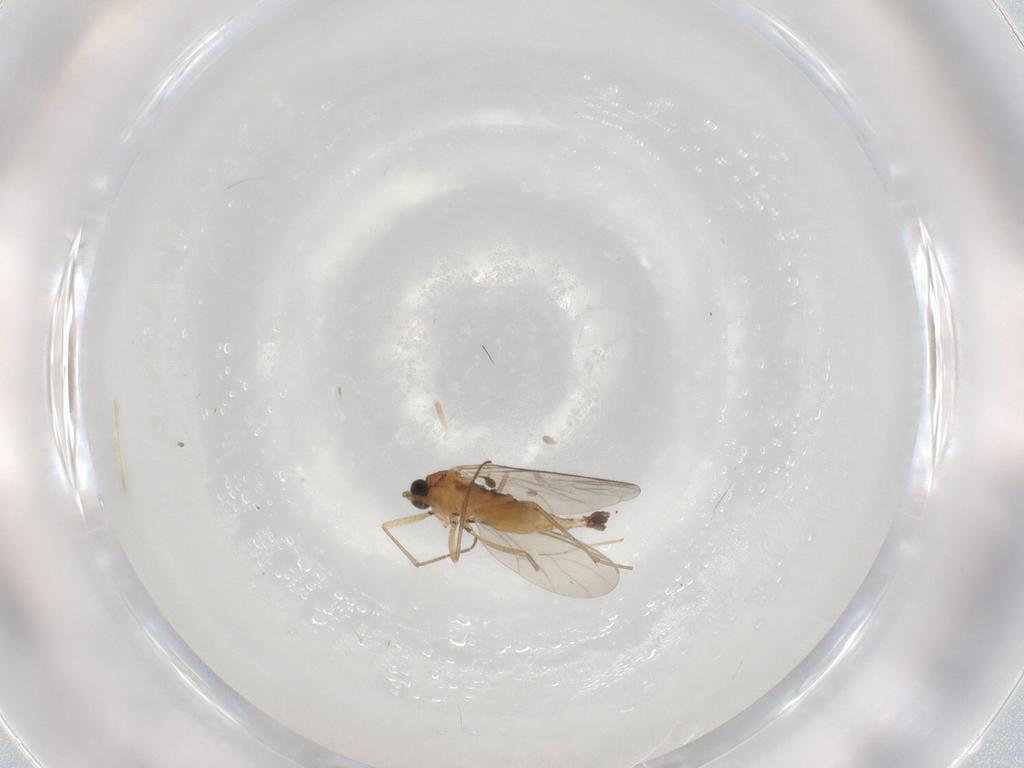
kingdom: Animalia
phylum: Arthropoda
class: Insecta
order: Diptera
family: Sciaridae
